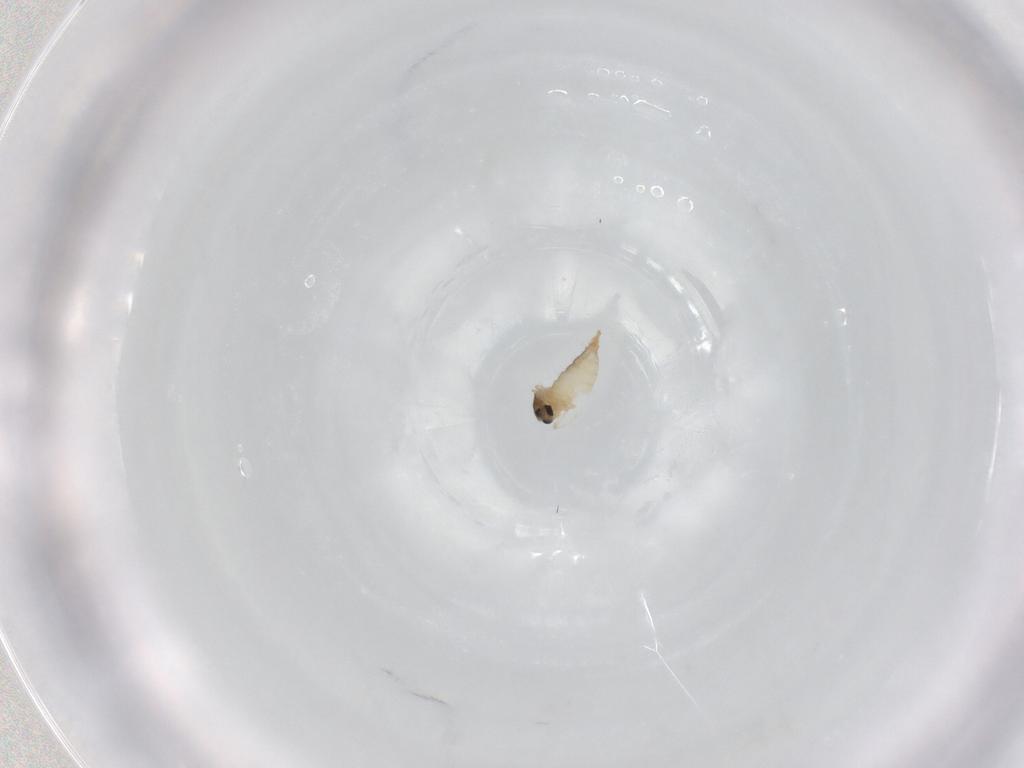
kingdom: Animalia
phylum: Arthropoda
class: Insecta
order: Diptera
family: Cecidomyiidae
